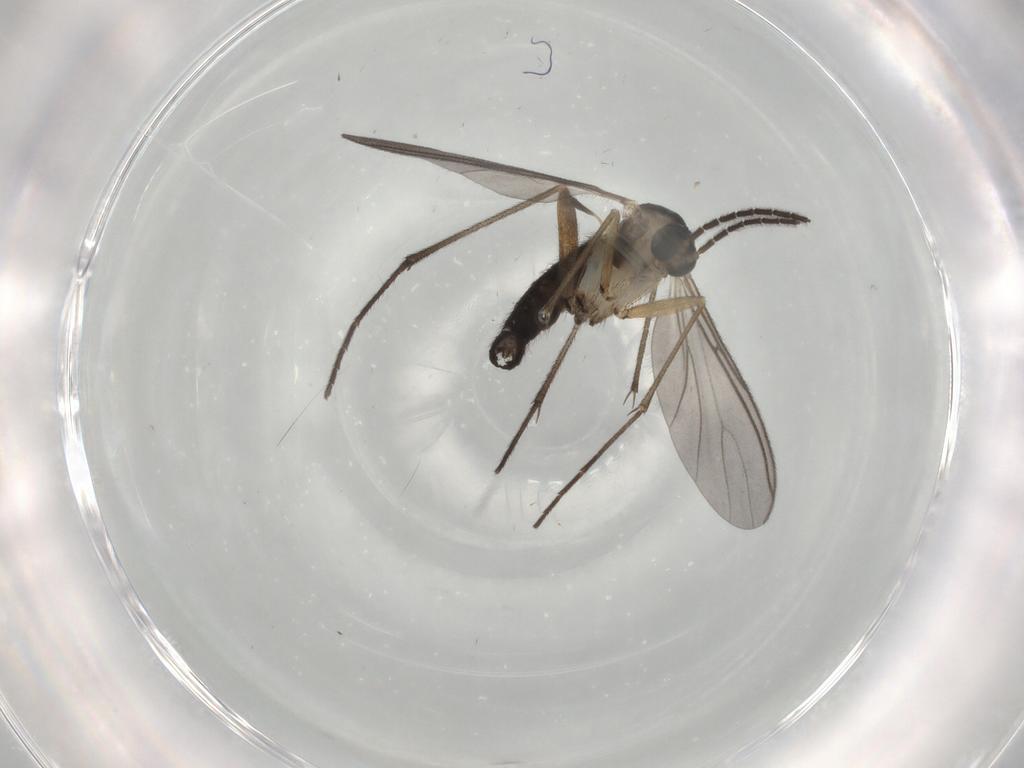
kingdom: Animalia
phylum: Arthropoda
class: Insecta
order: Diptera
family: Sciaridae
